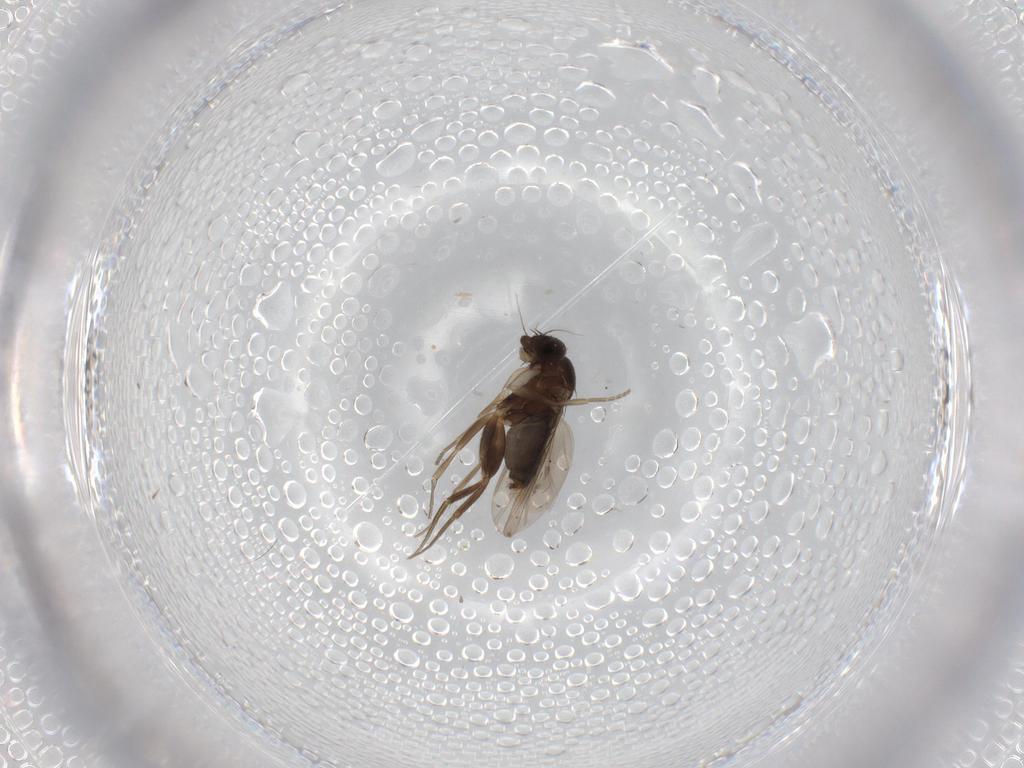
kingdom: Animalia
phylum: Arthropoda
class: Insecta
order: Diptera
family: Phoridae
